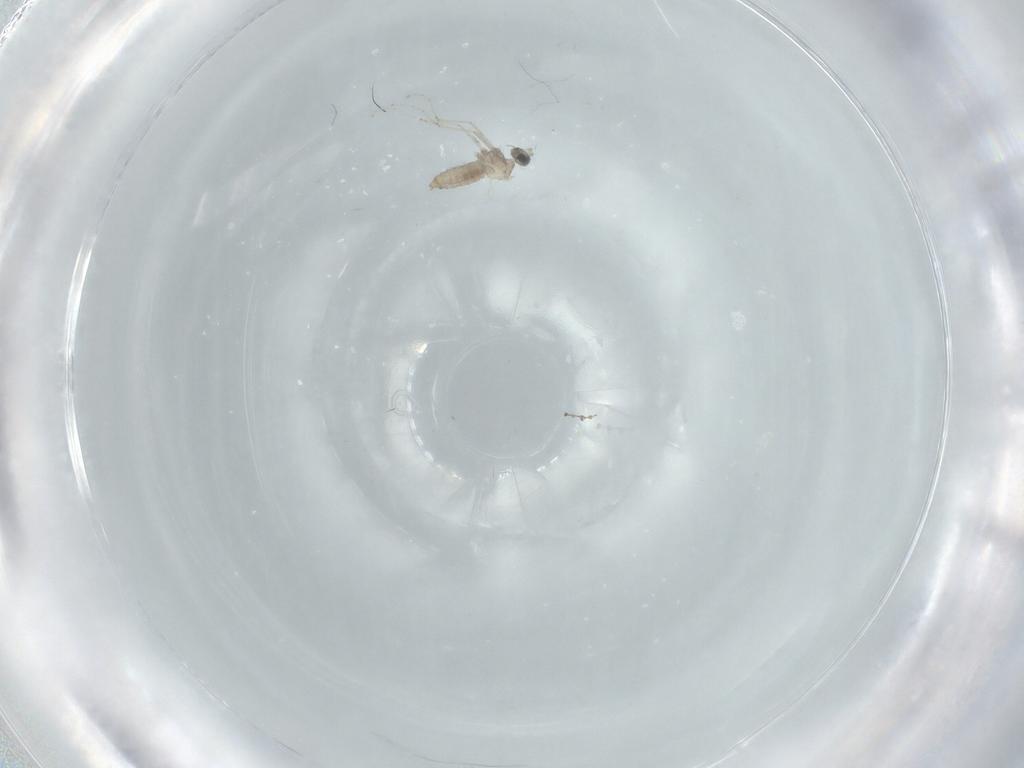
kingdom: Animalia
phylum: Arthropoda
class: Insecta
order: Diptera
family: Cecidomyiidae
